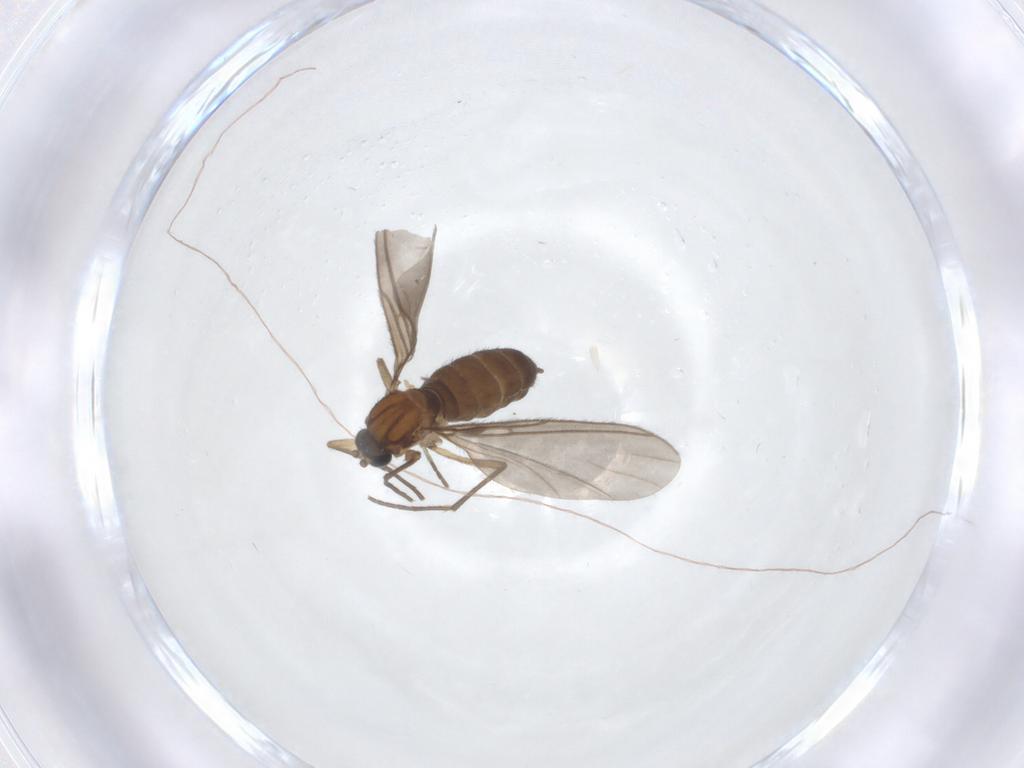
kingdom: Animalia
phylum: Arthropoda
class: Insecta
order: Diptera
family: Sciaridae
